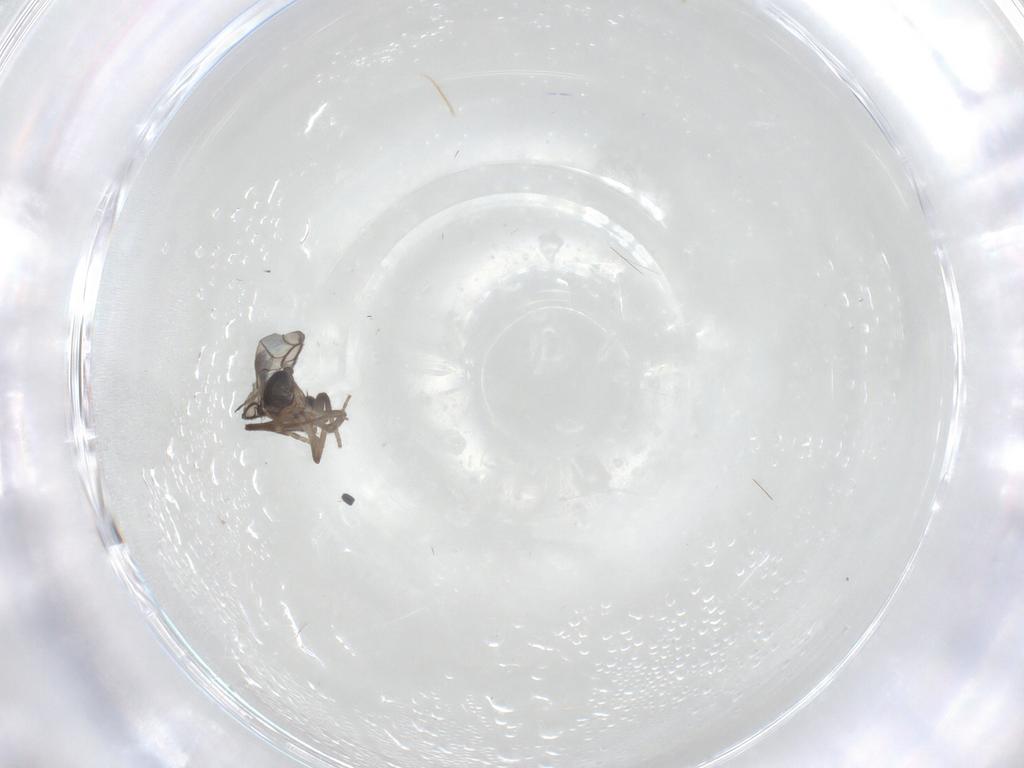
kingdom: Animalia
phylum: Arthropoda
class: Insecta
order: Diptera
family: Phoridae
